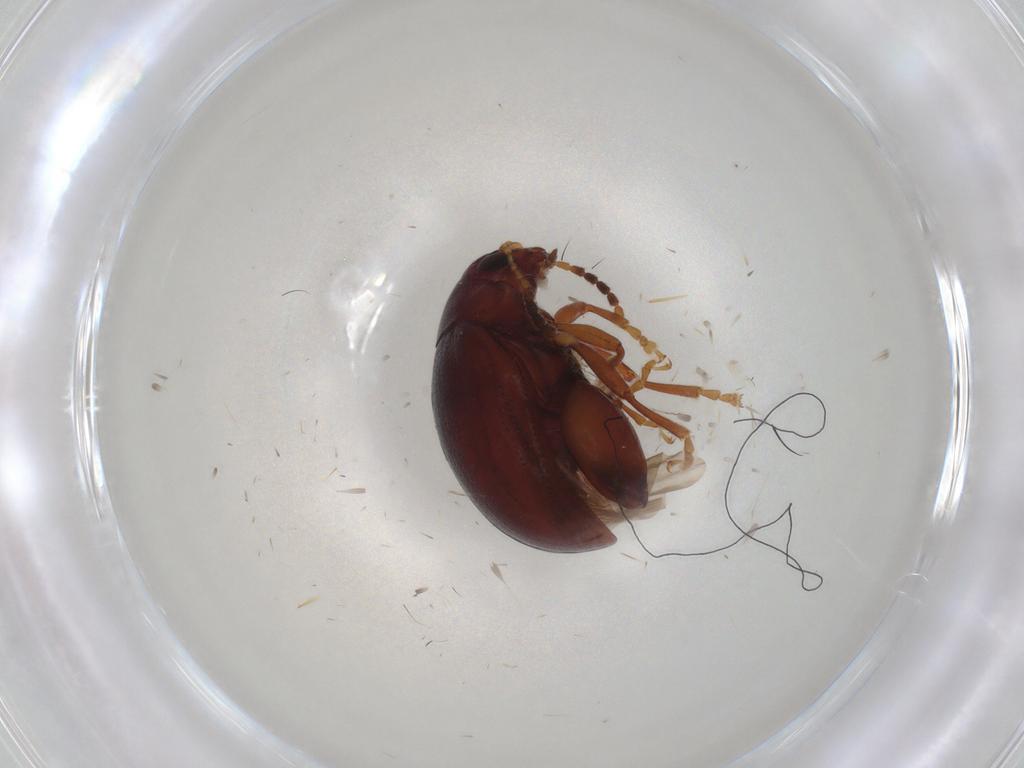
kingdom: Animalia
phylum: Arthropoda
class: Insecta
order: Coleoptera
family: Chrysomelidae
